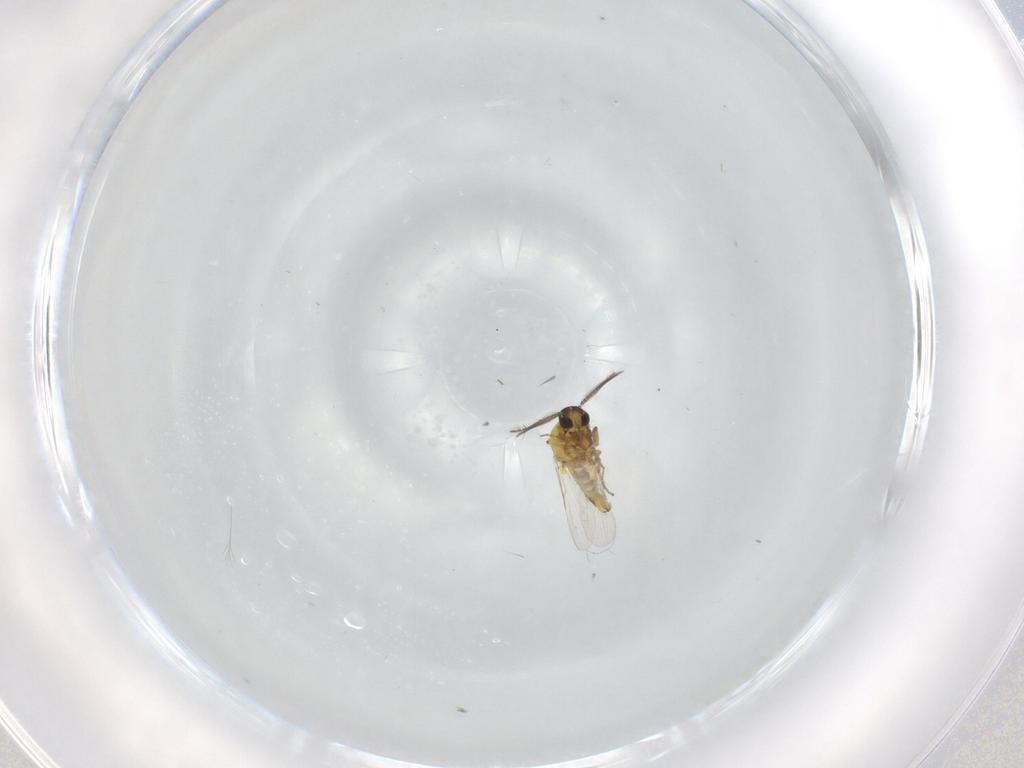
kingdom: Animalia
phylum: Arthropoda
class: Insecta
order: Diptera
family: Ceratopogonidae
